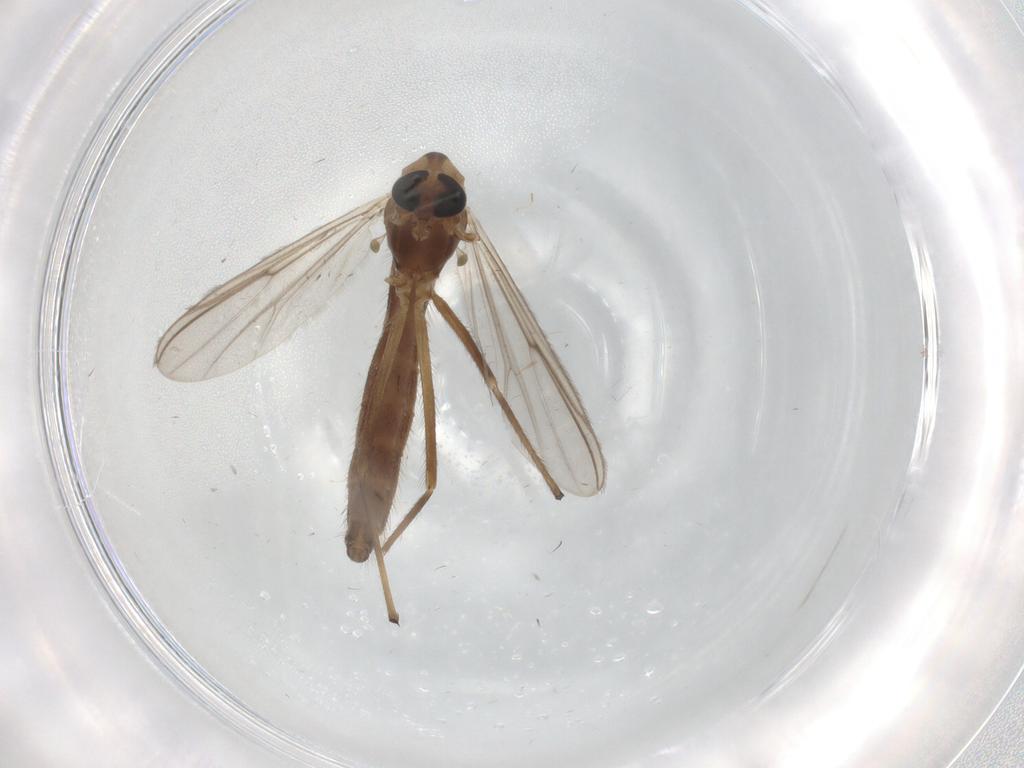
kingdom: Animalia
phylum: Arthropoda
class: Insecta
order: Diptera
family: Chironomidae
